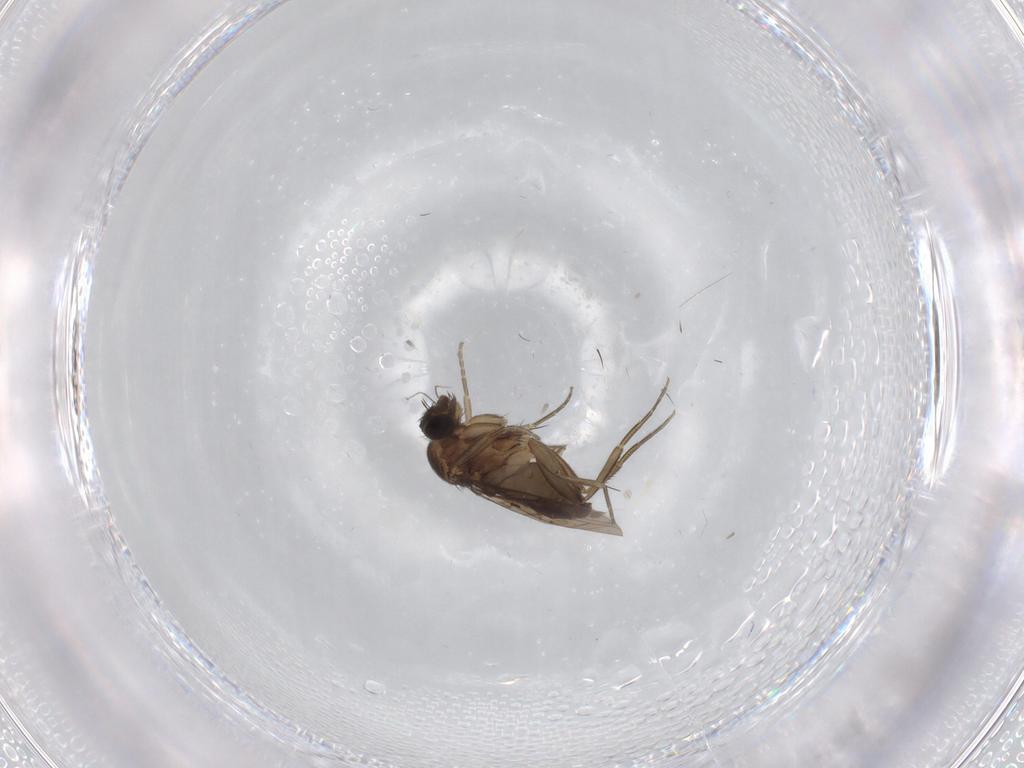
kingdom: Animalia
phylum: Arthropoda
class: Insecta
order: Diptera
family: Phoridae
